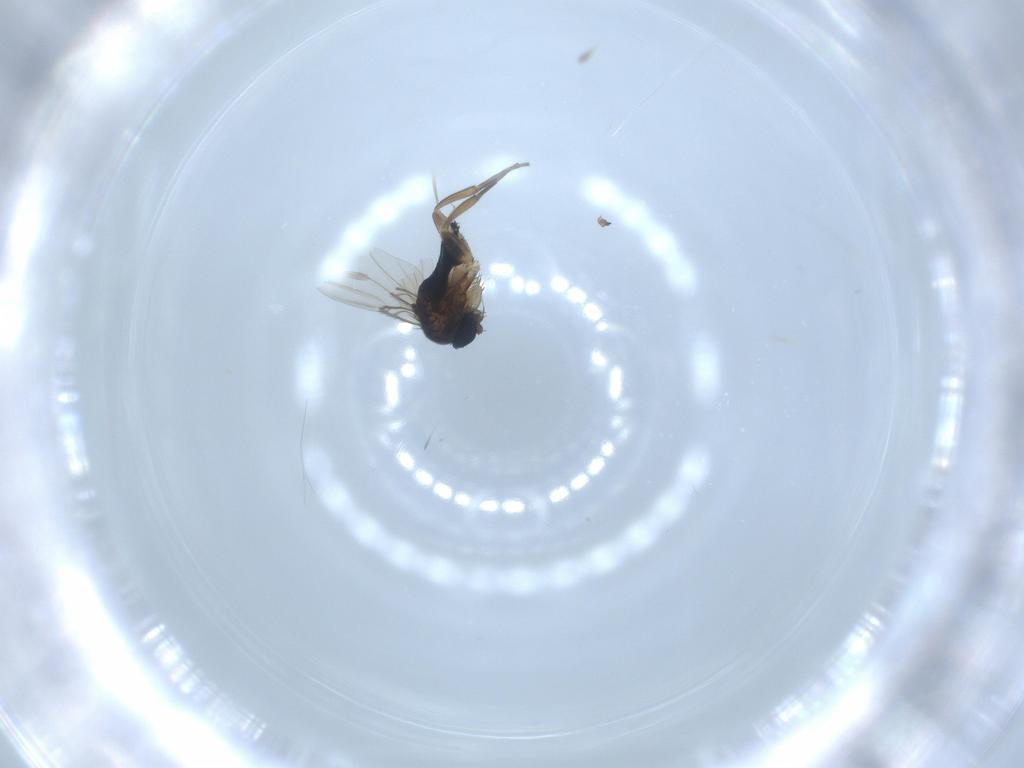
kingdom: Animalia
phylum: Arthropoda
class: Insecta
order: Diptera
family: Phoridae
